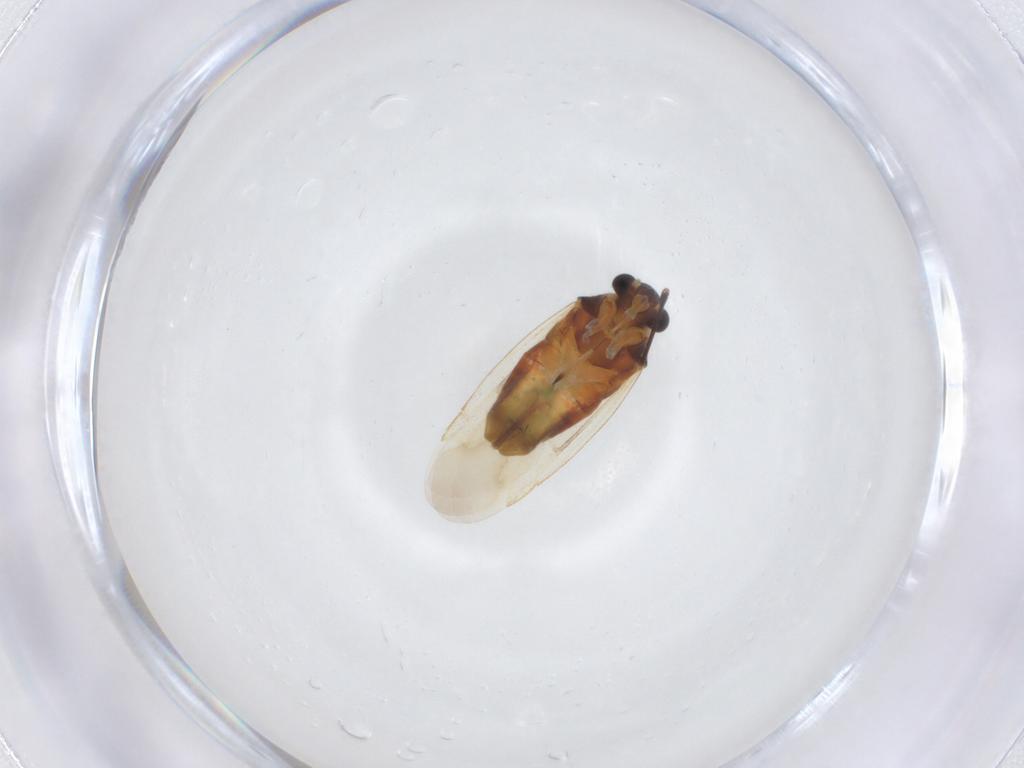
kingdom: Animalia
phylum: Arthropoda
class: Insecta
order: Hemiptera
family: Miridae
